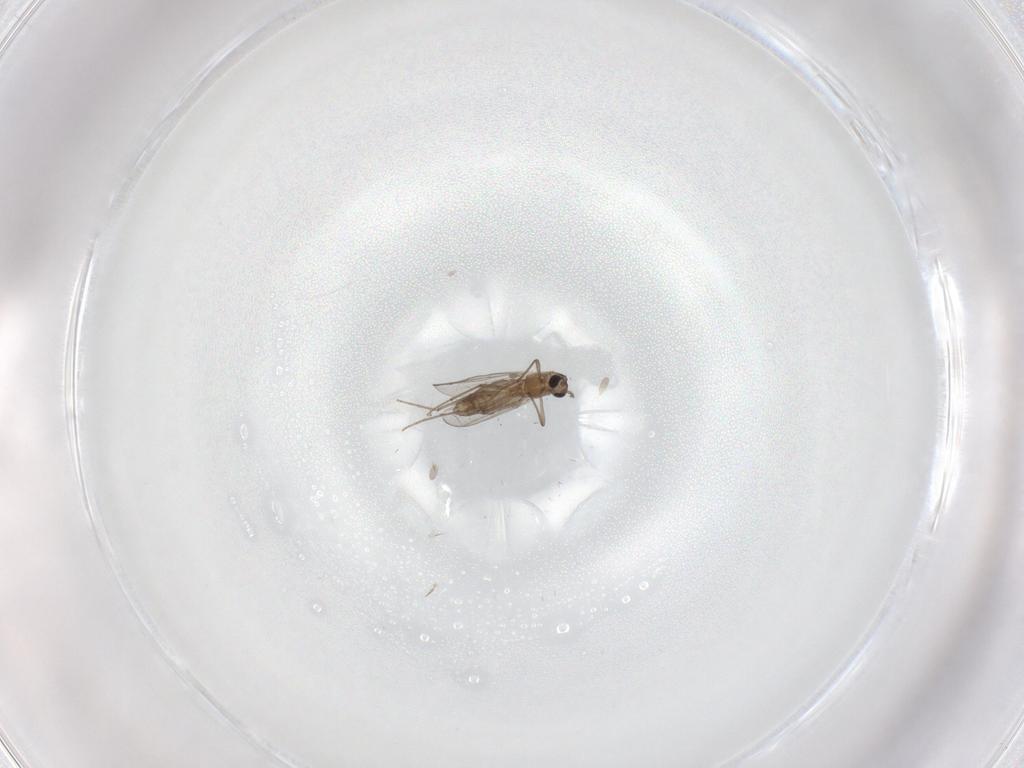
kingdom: Animalia
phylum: Arthropoda
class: Insecta
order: Diptera
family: Chironomidae
